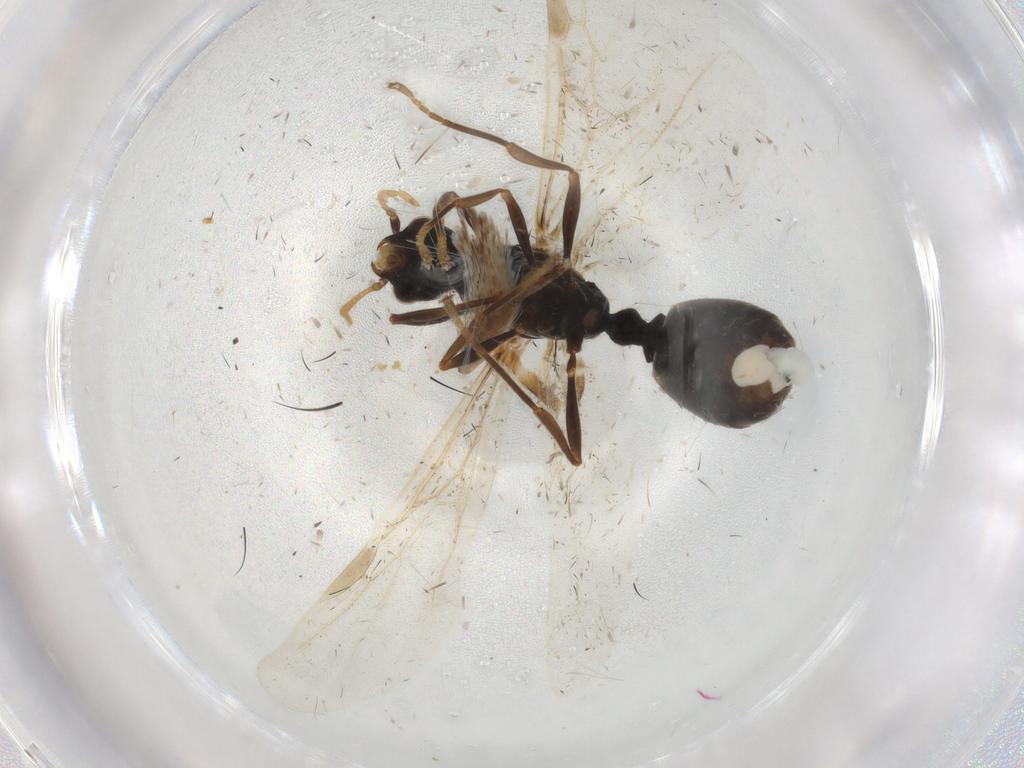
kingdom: Animalia
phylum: Arthropoda
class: Insecta
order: Hymenoptera
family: Formicidae
